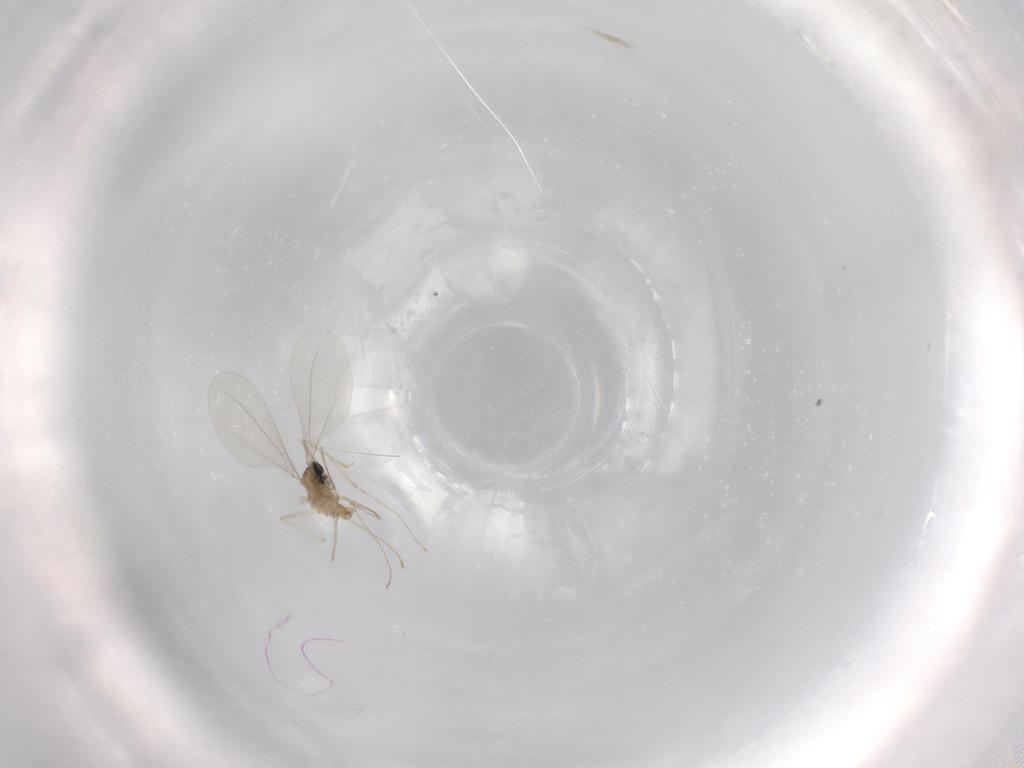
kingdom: Animalia
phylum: Arthropoda
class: Insecta
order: Diptera
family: Cecidomyiidae
